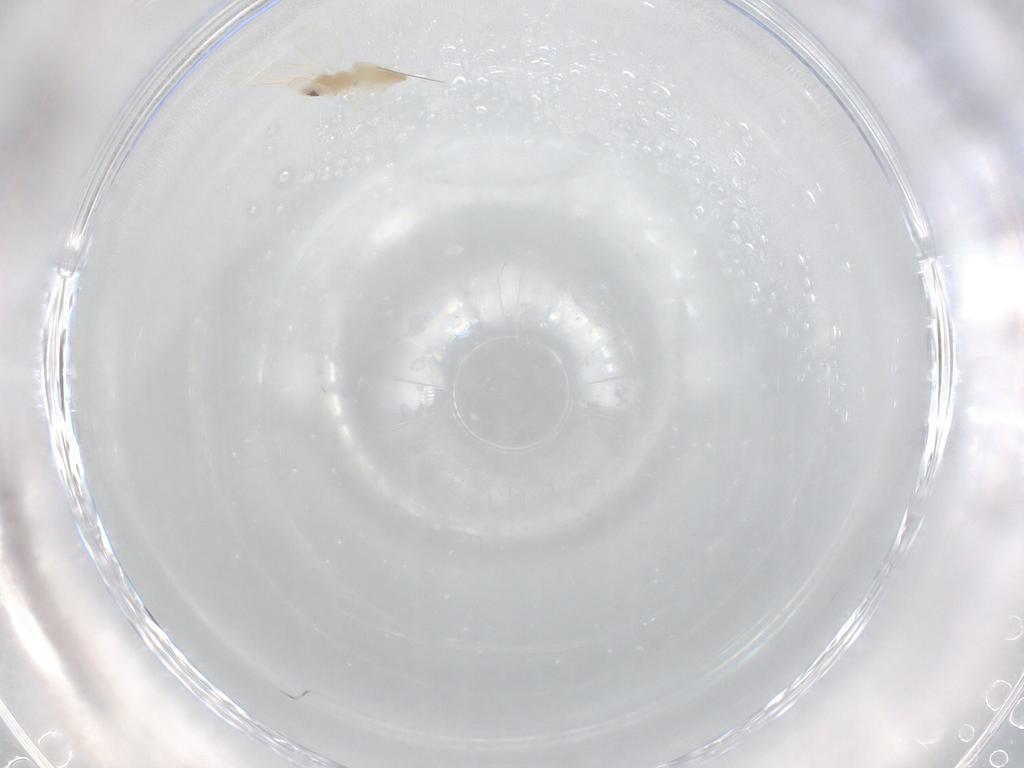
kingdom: Animalia
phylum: Arthropoda
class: Insecta
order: Diptera
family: Cecidomyiidae
